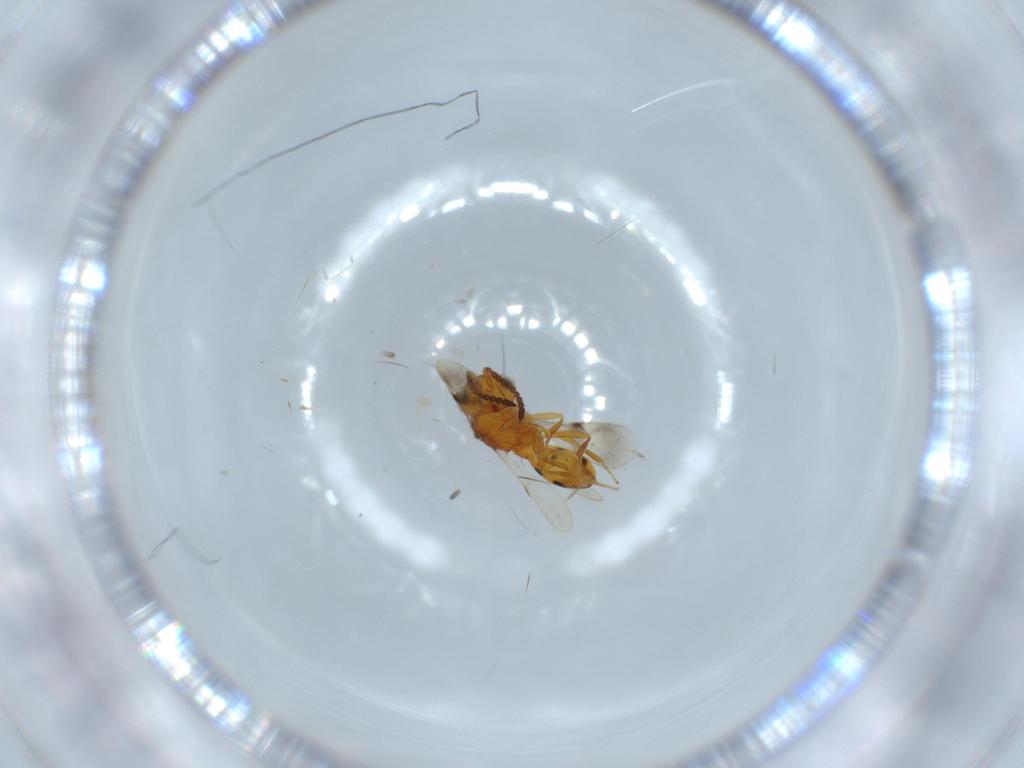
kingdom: Animalia
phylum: Arthropoda
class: Insecta
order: Hymenoptera
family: Scelionidae
